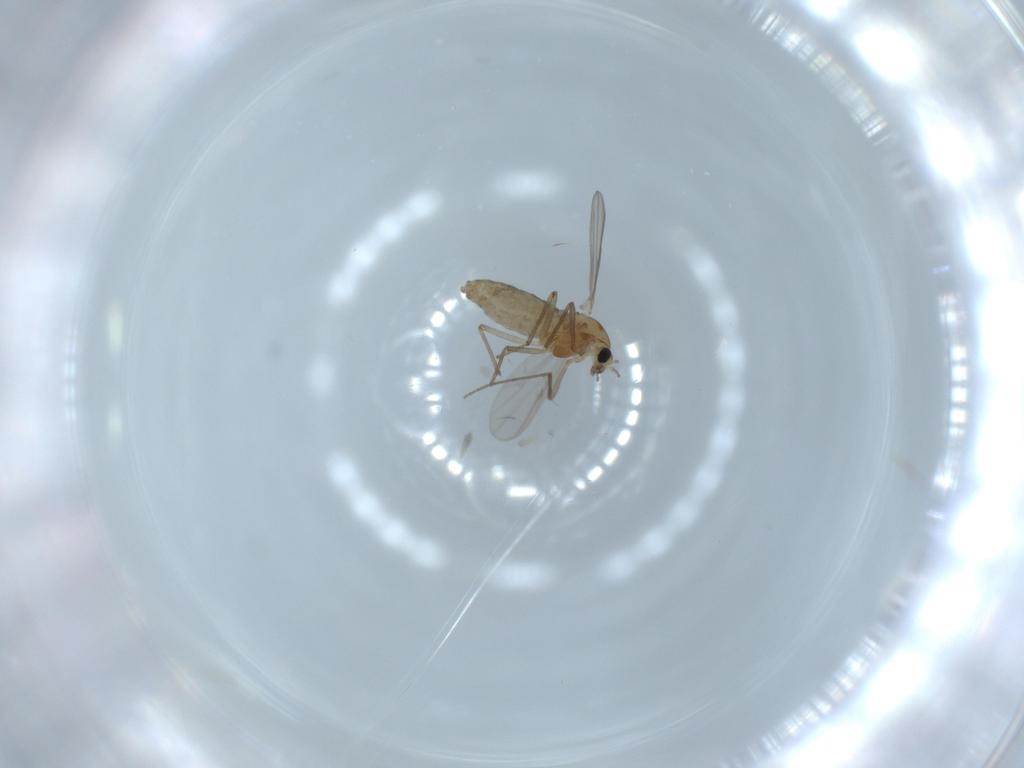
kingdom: Animalia
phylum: Arthropoda
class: Insecta
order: Diptera
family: Chironomidae
